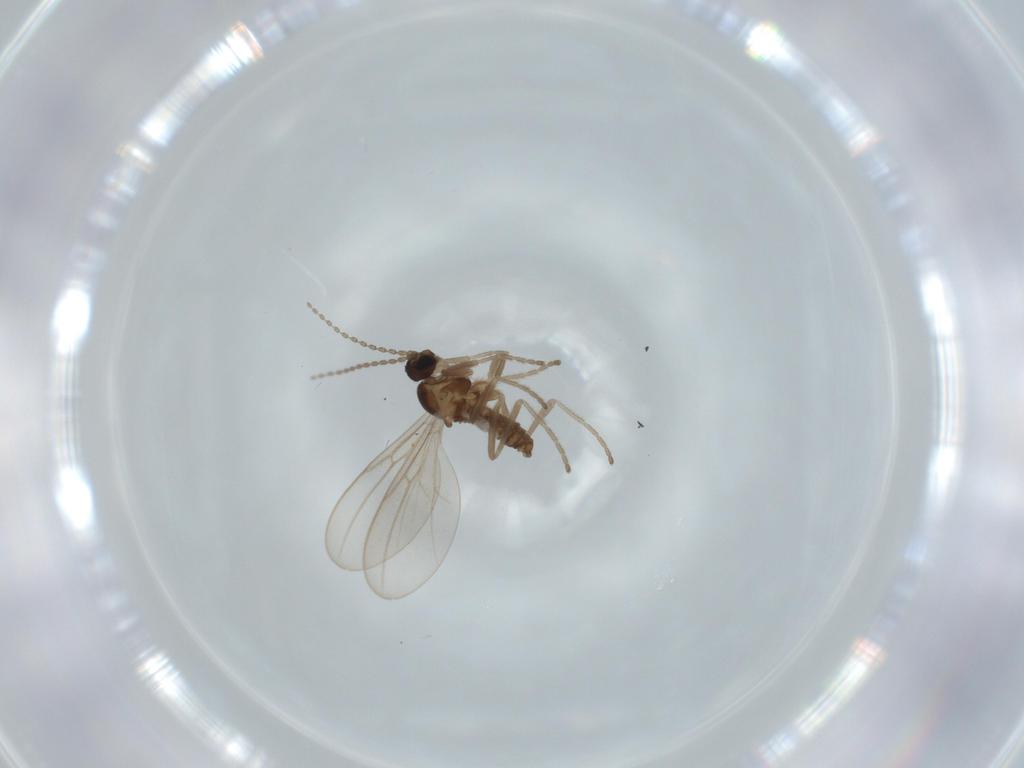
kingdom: Animalia
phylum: Arthropoda
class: Insecta
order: Diptera
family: Cecidomyiidae
